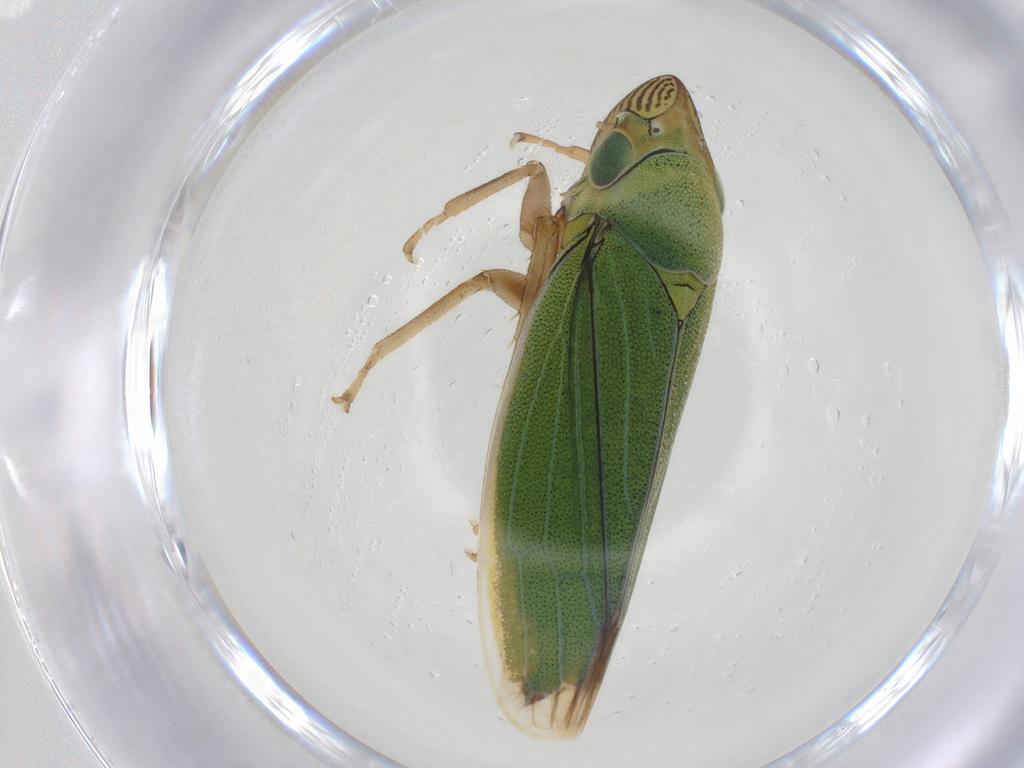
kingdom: Animalia
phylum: Arthropoda
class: Insecta
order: Hemiptera
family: Cicadellidae
